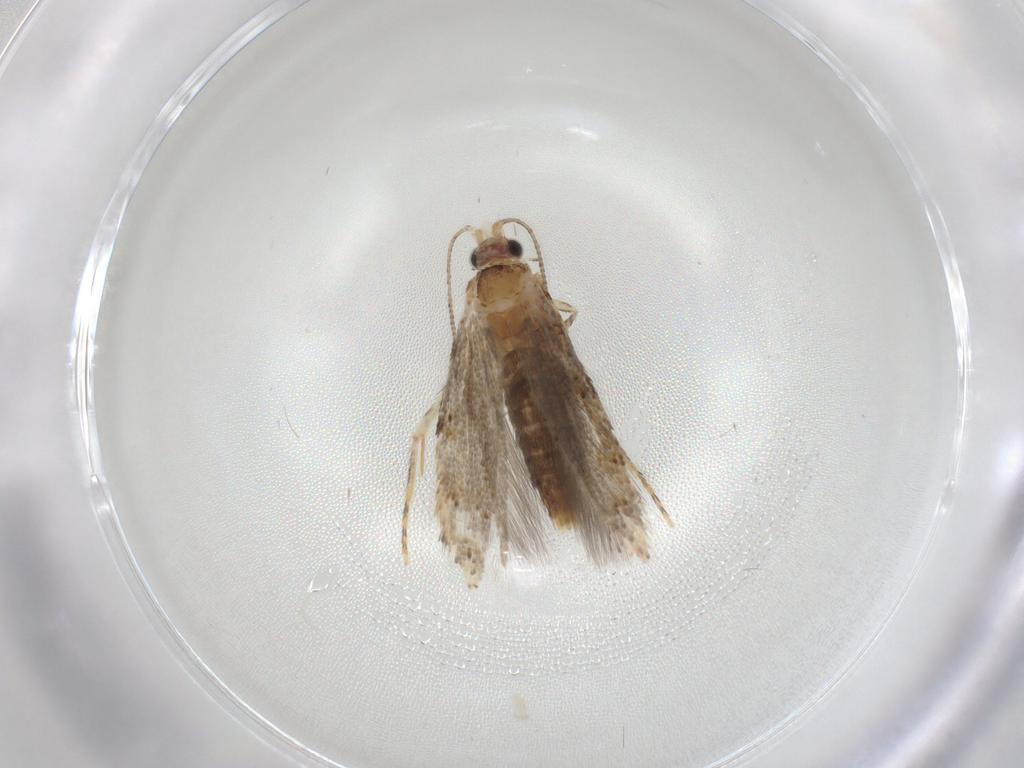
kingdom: Animalia
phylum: Arthropoda
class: Insecta
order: Lepidoptera
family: Tineidae
